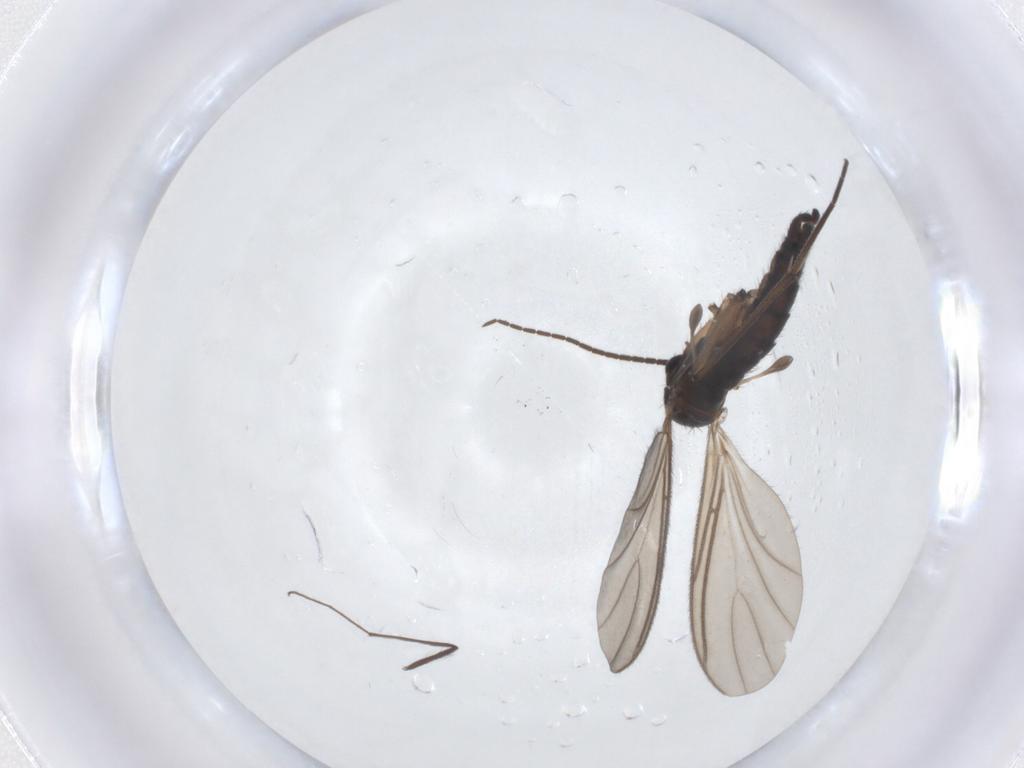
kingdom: Animalia
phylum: Arthropoda
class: Insecta
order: Diptera
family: Sciaridae
